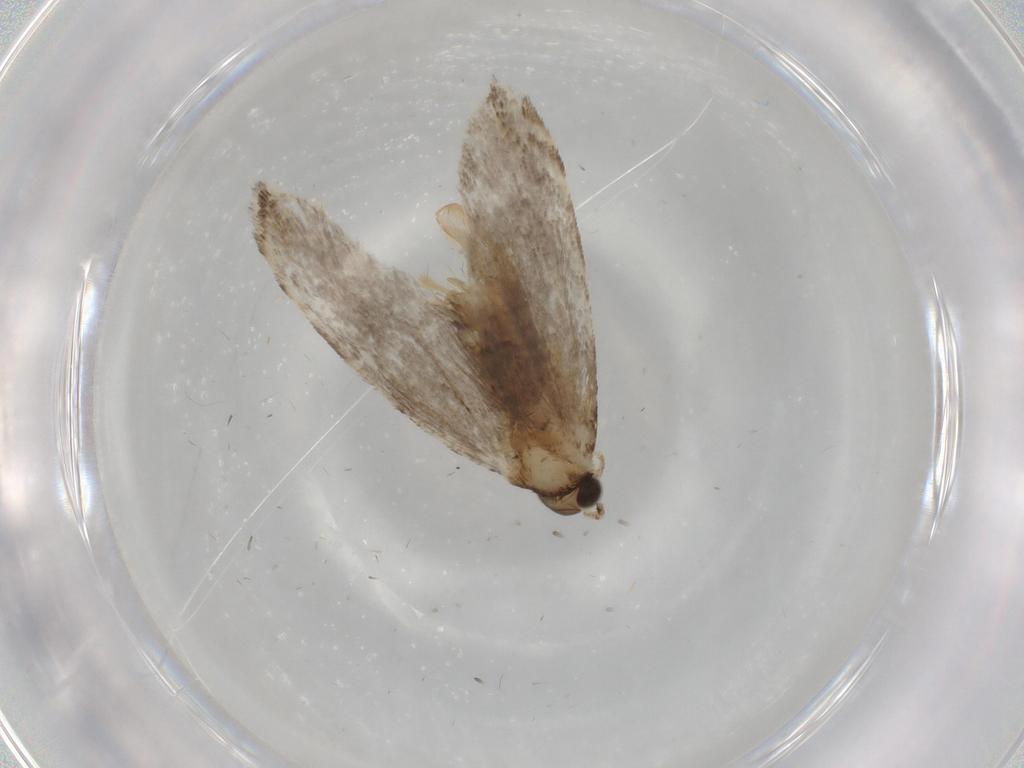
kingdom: Animalia
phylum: Arthropoda
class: Insecta
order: Lepidoptera
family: Tineidae
